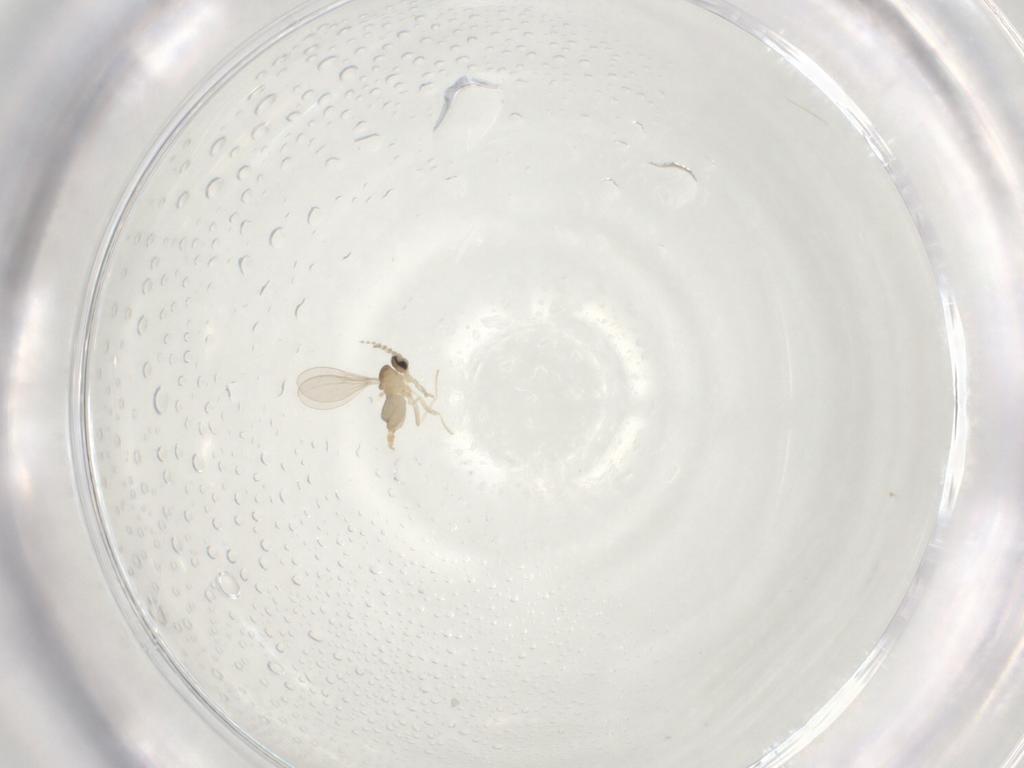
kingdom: Animalia
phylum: Arthropoda
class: Insecta
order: Diptera
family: Cecidomyiidae
